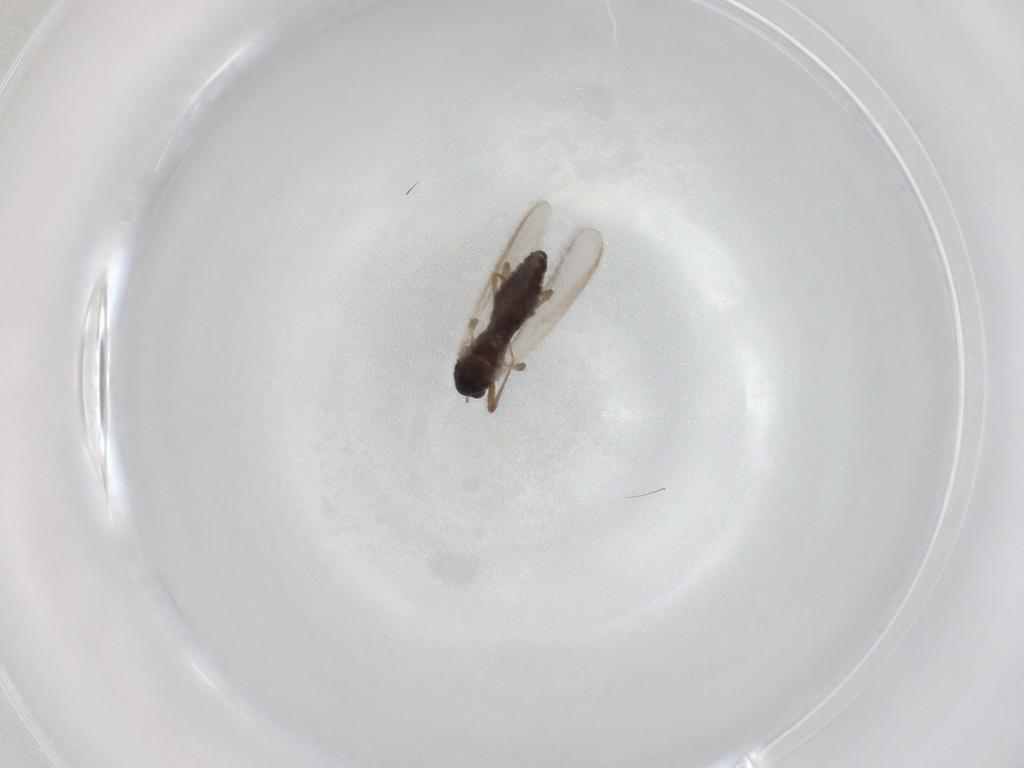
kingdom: Animalia
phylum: Arthropoda
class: Insecta
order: Diptera
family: Chironomidae
